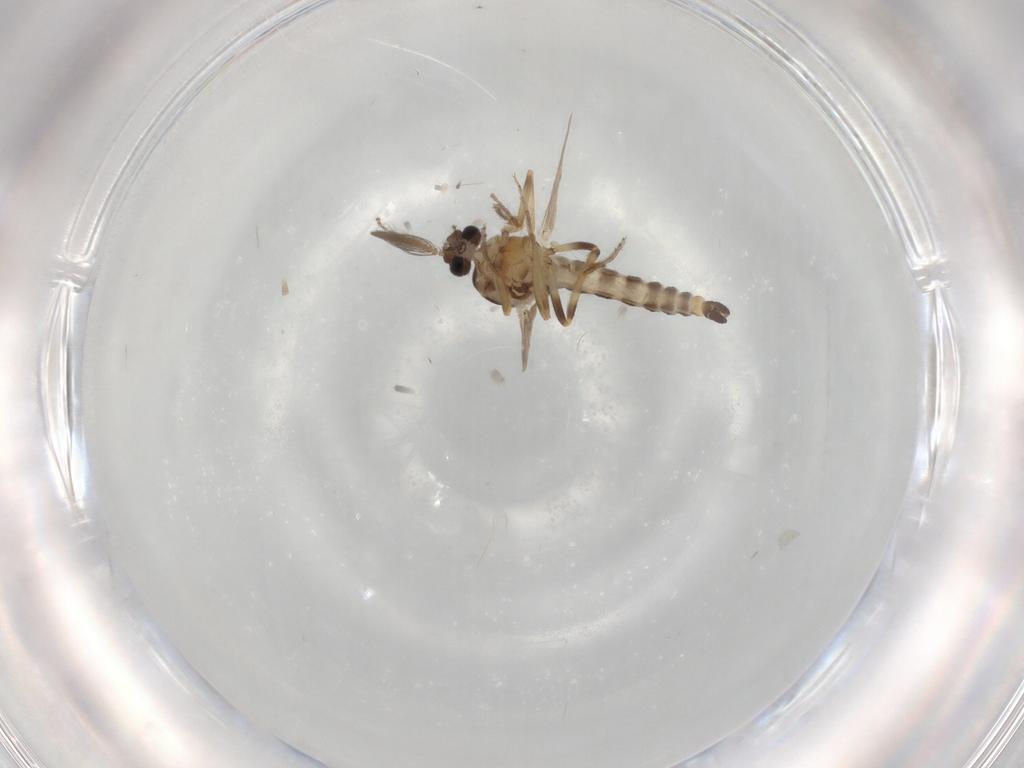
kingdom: Animalia
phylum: Arthropoda
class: Insecta
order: Diptera
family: Ceratopogonidae
